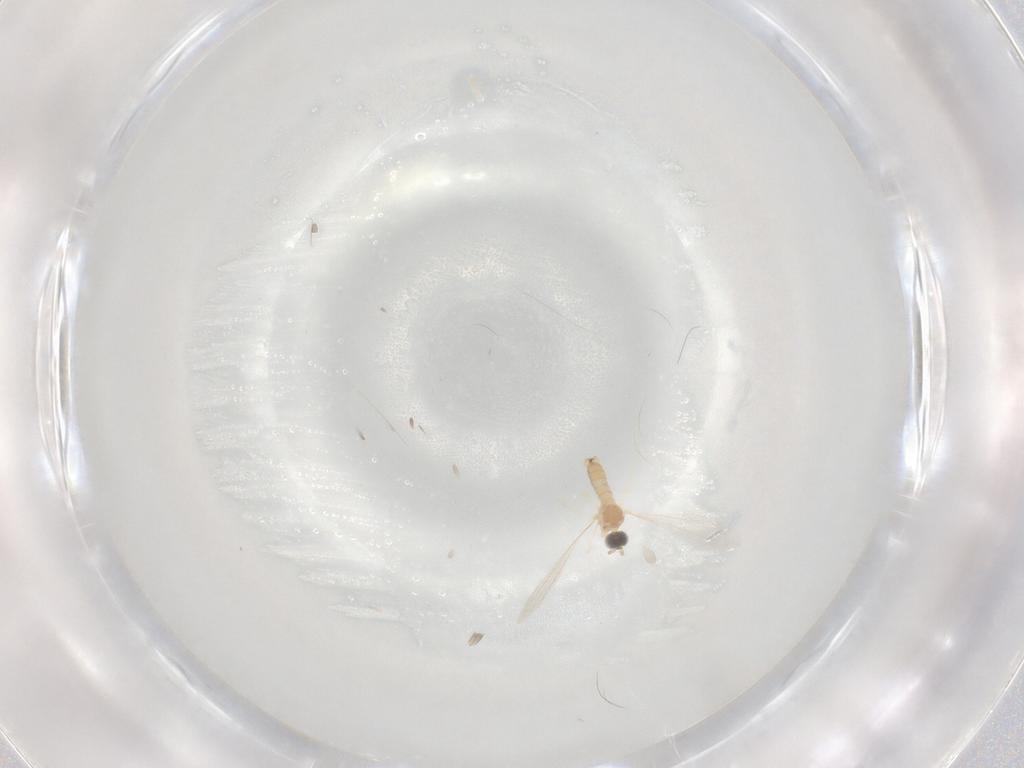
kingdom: Animalia
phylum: Arthropoda
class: Insecta
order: Diptera
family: Cecidomyiidae
